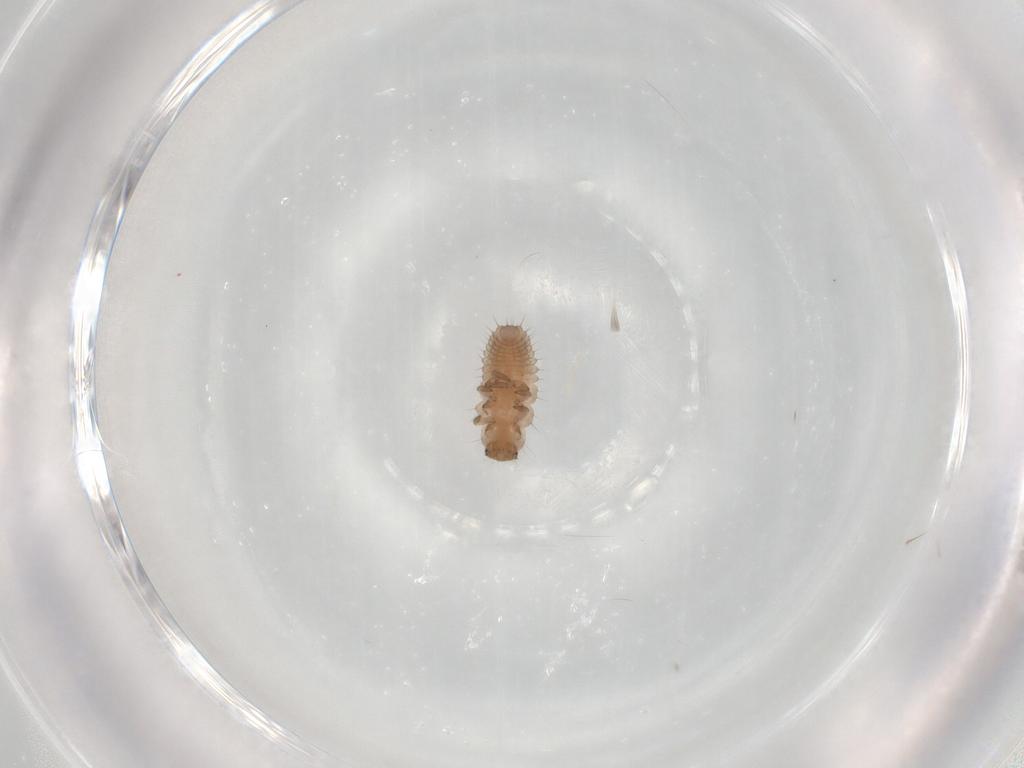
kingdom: Animalia
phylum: Arthropoda
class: Insecta
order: Coleoptera
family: Coccinellidae
